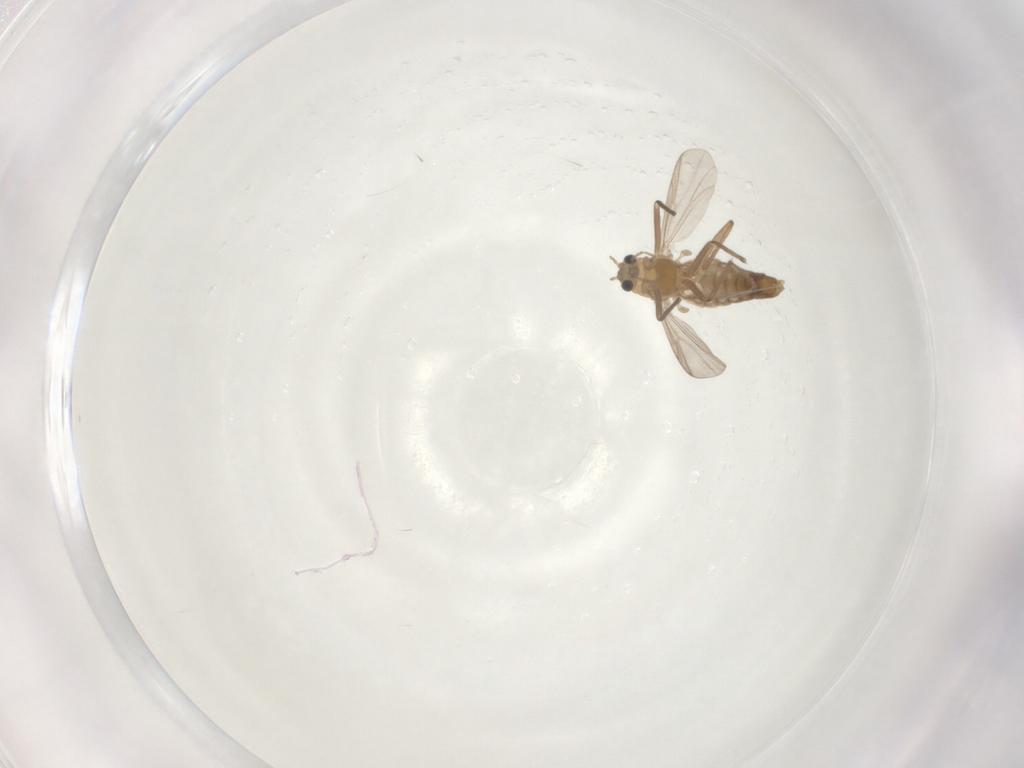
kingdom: Animalia
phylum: Arthropoda
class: Insecta
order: Diptera
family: Chironomidae
